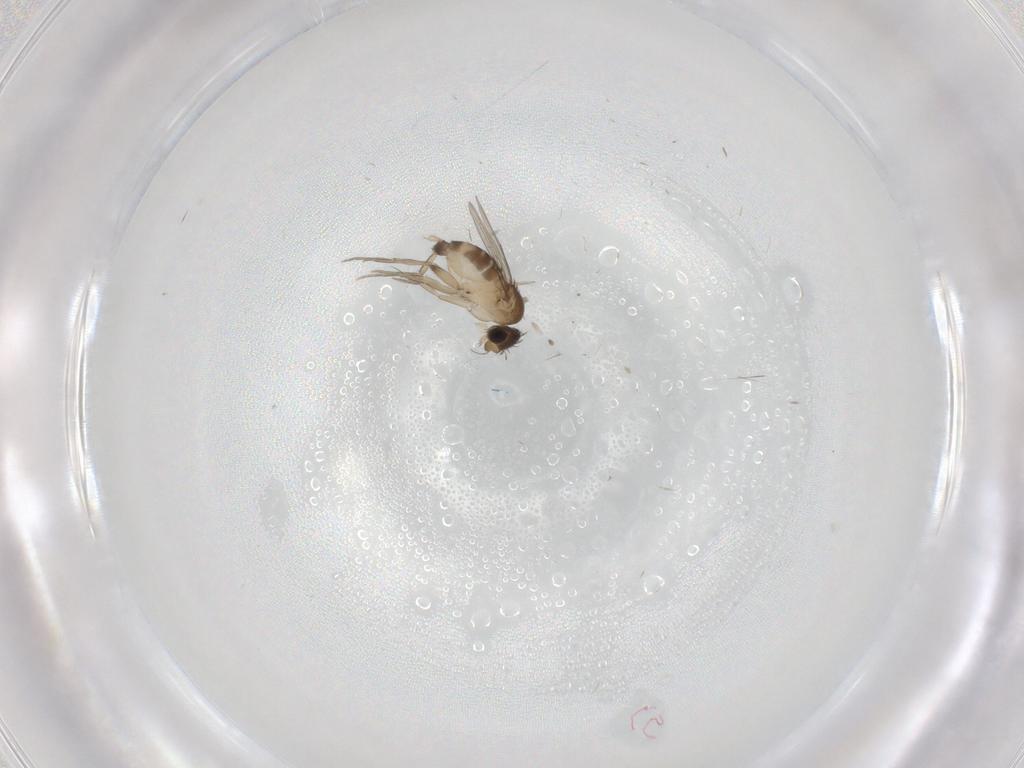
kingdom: Animalia
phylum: Arthropoda
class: Insecta
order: Diptera
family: Phoridae
